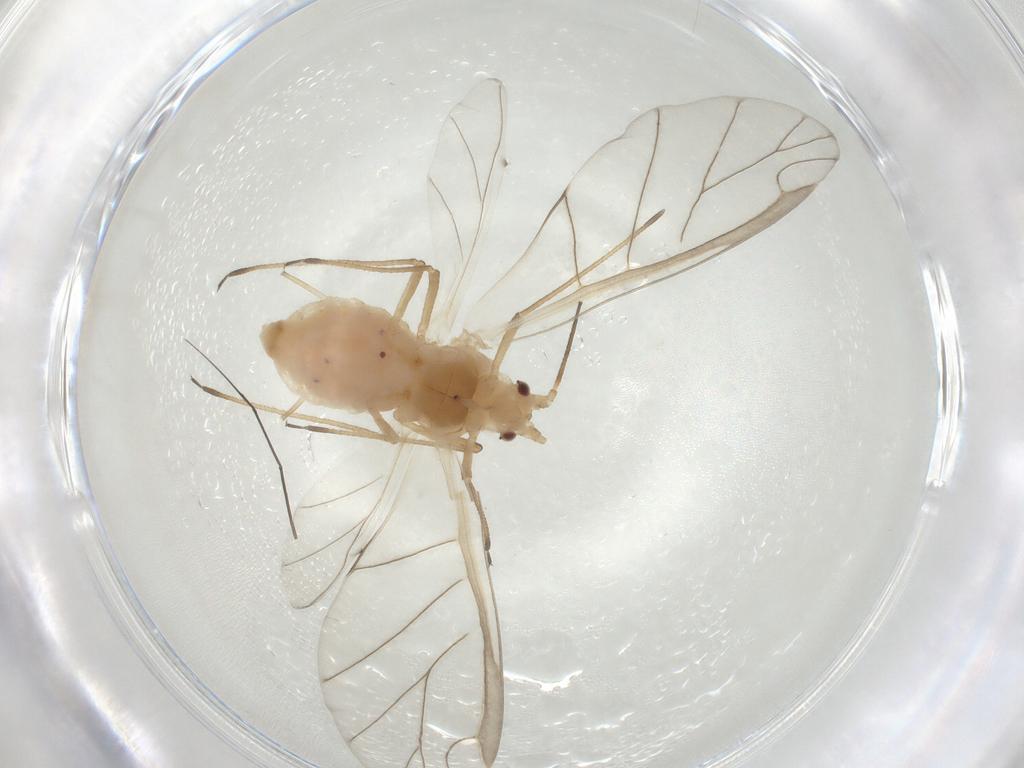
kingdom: Animalia
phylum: Arthropoda
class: Insecta
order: Hemiptera
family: Aphididae
